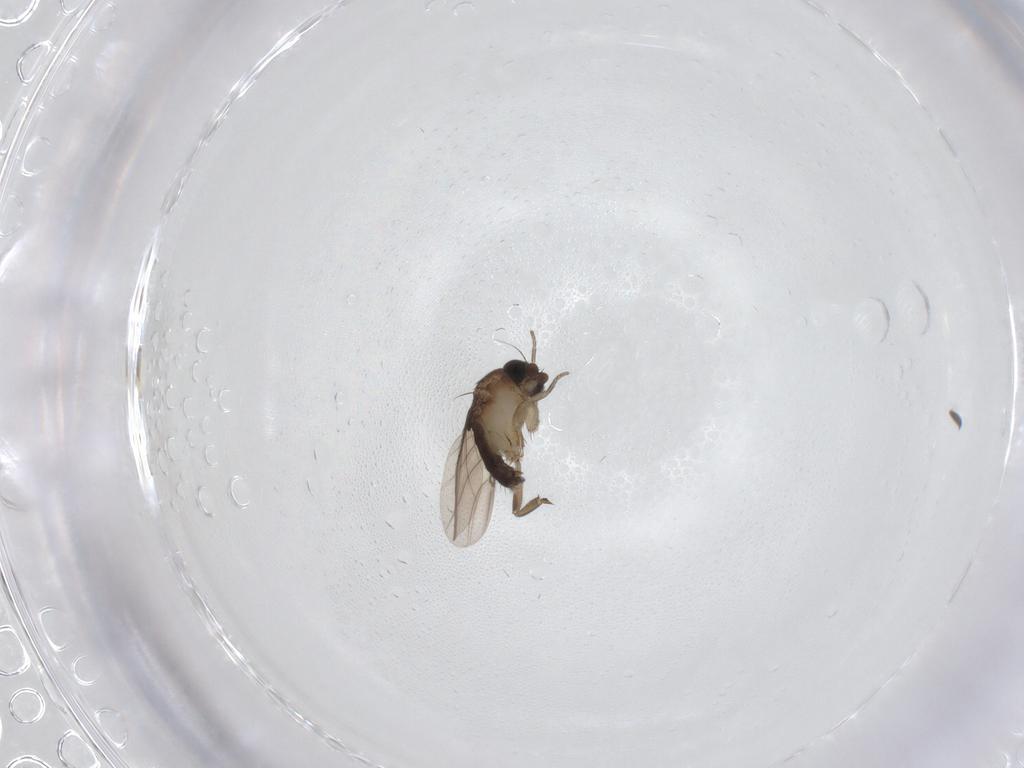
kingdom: Animalia
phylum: Arthropoda
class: Insecta
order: Diptera
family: Phoridae
